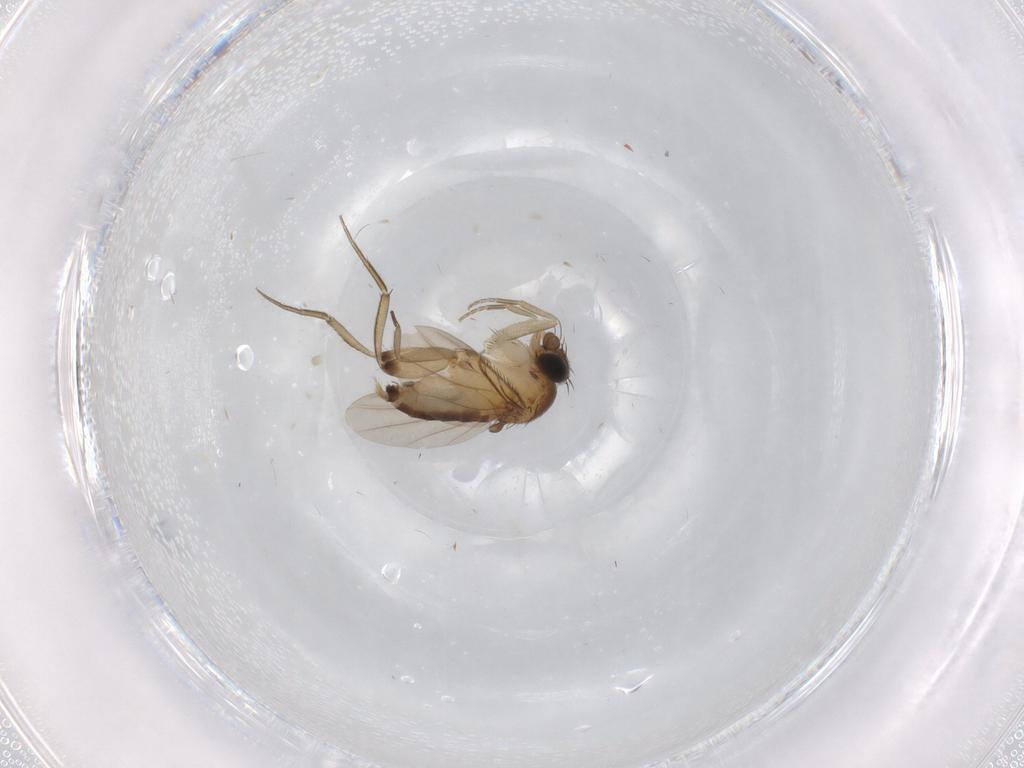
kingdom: Animalia
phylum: Arthropoda
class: Insecta
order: Diptera
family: Phoridae
